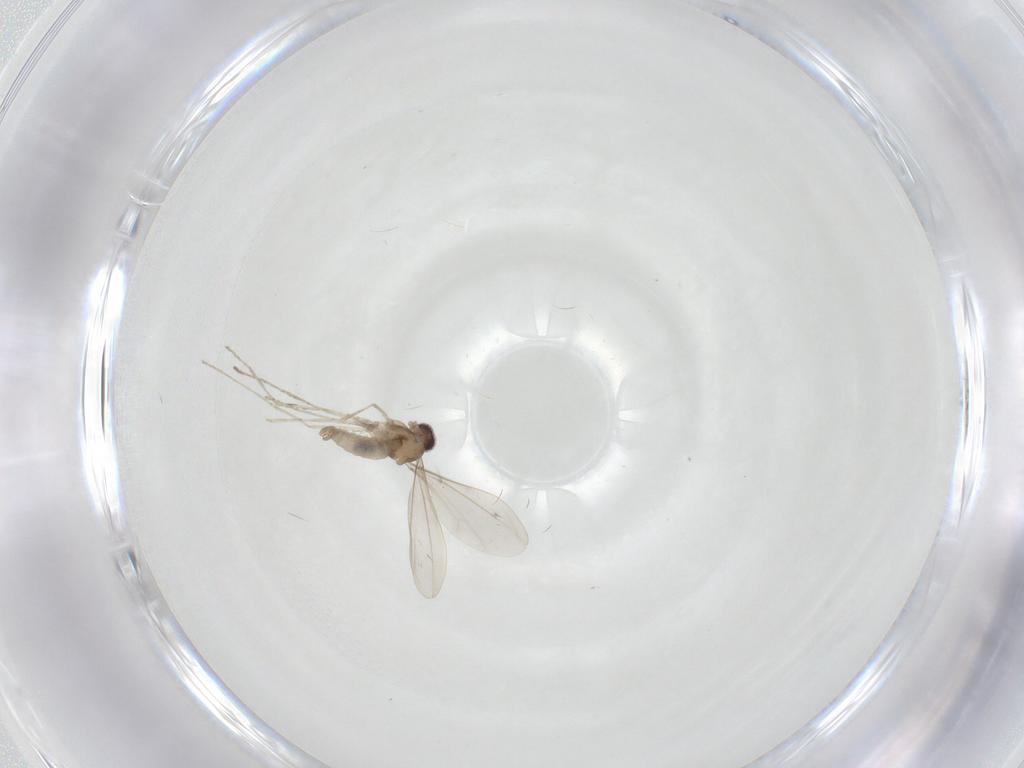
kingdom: Animalia
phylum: Arthropoda
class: Insecta
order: Diptera
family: Cecidomyiidae
